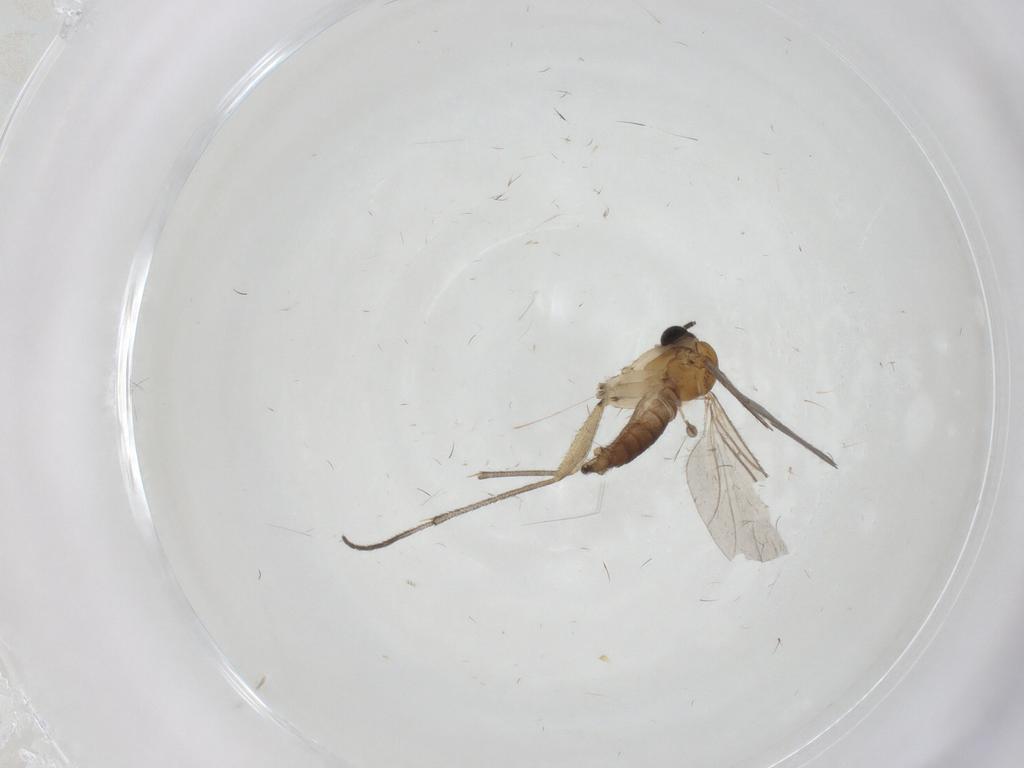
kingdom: Animalia
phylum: Arthropoda
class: Insecta
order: Diptera
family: Sciaridae
